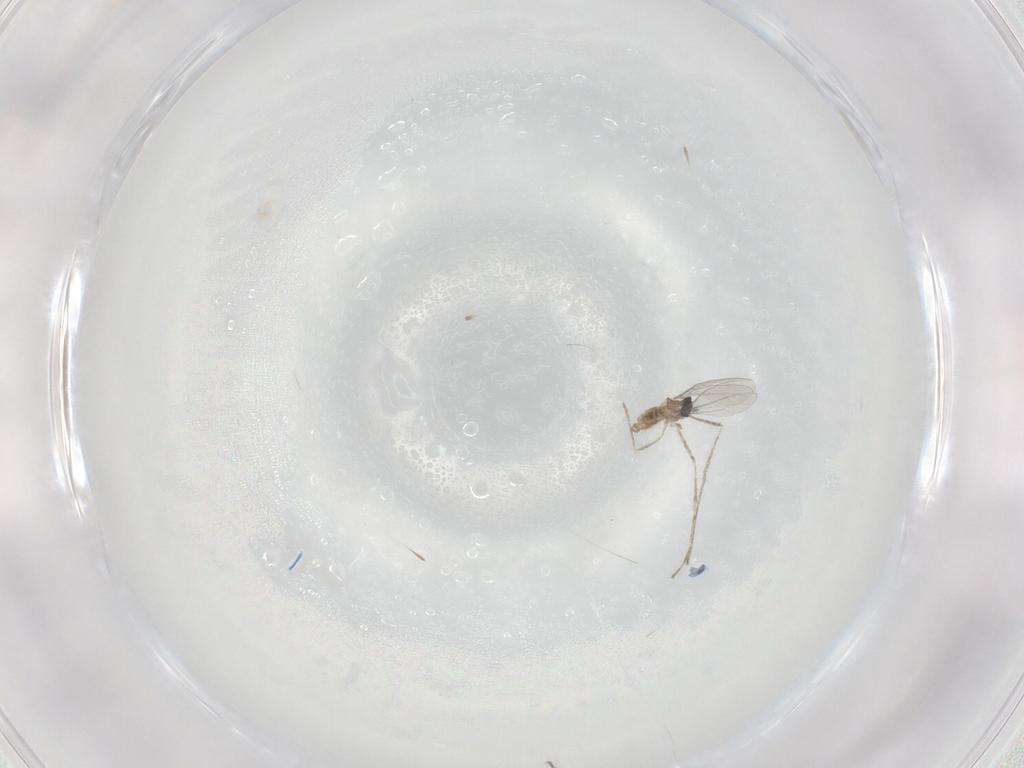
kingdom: Animalia
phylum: Arthropoda
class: Insecta
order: Diptera
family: Cecidomyiidae
